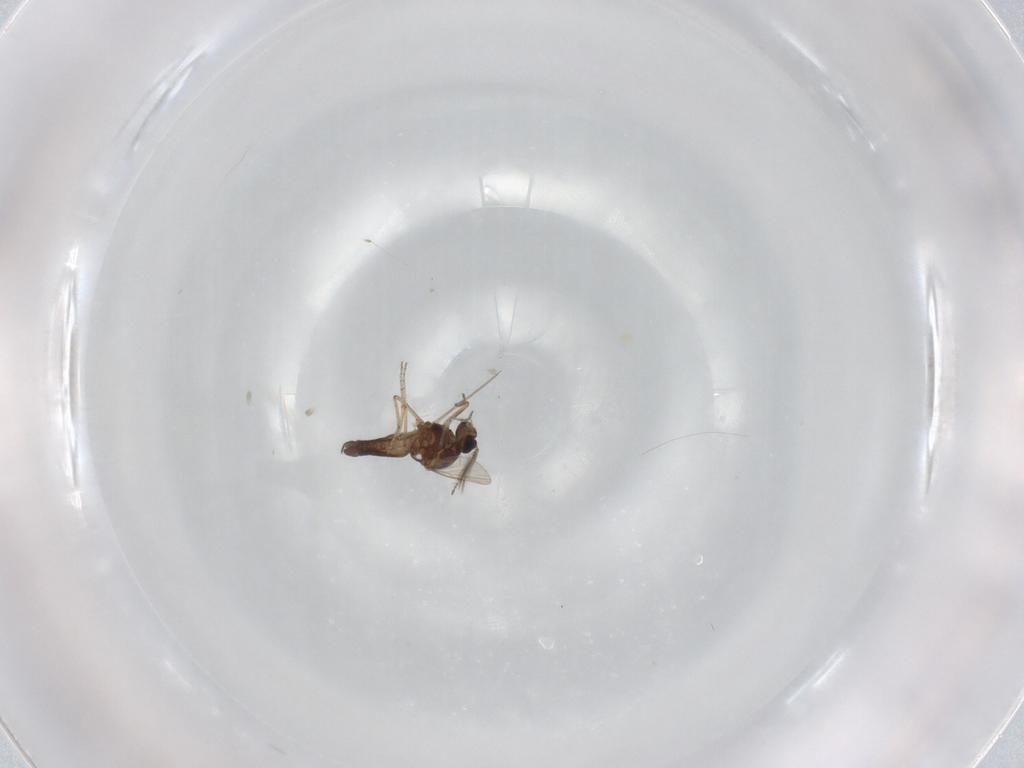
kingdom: Animalia
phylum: Arthropoda
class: Insecta
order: Diptera
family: Ceratopogonidae
